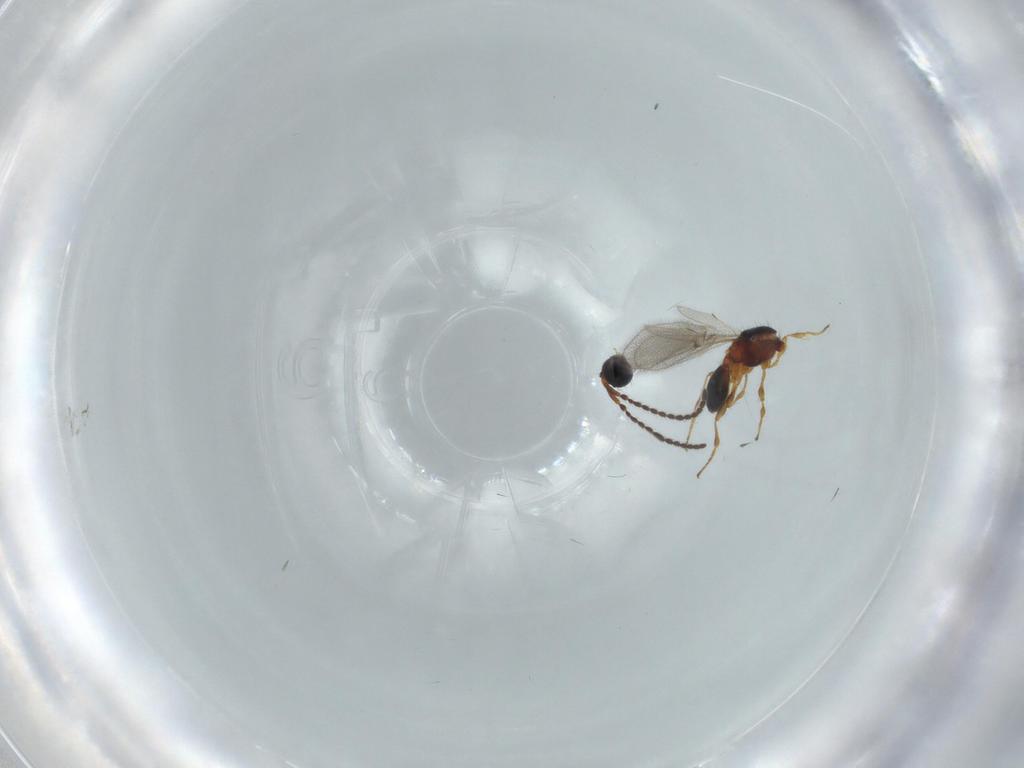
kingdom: Animalia
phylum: Arthropoda
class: Insecta
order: Hymenoptera
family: Diapriidae
